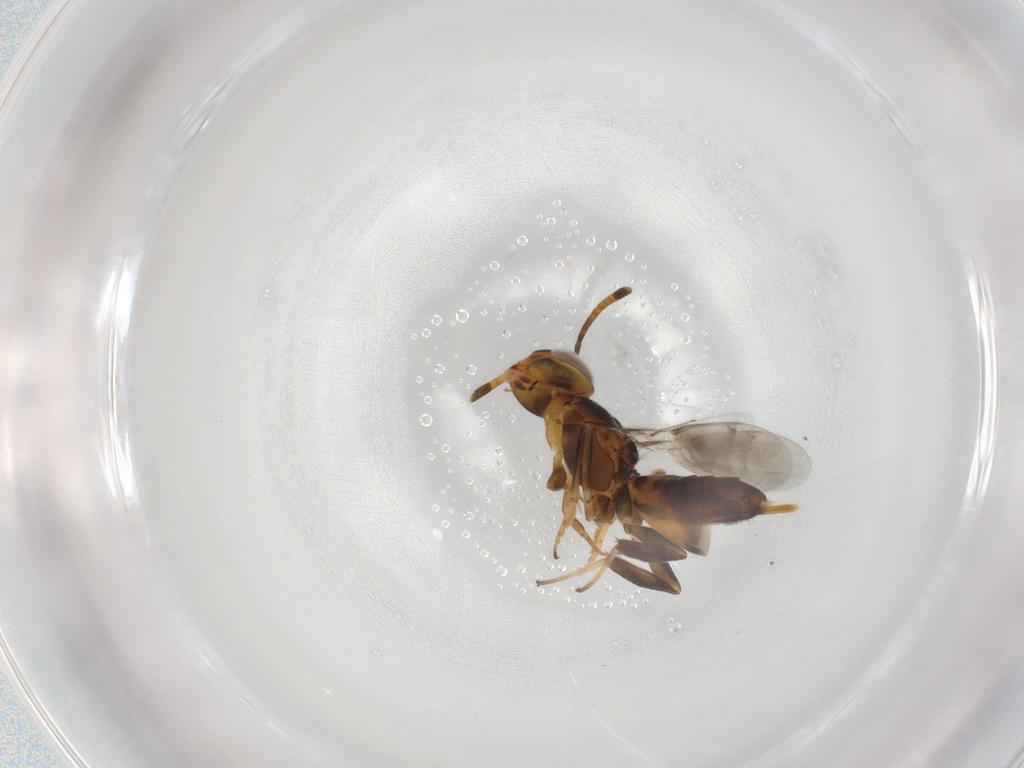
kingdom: Animalia
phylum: Arthropoda
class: Insecta
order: Hymenoptera
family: Eupelmidae
